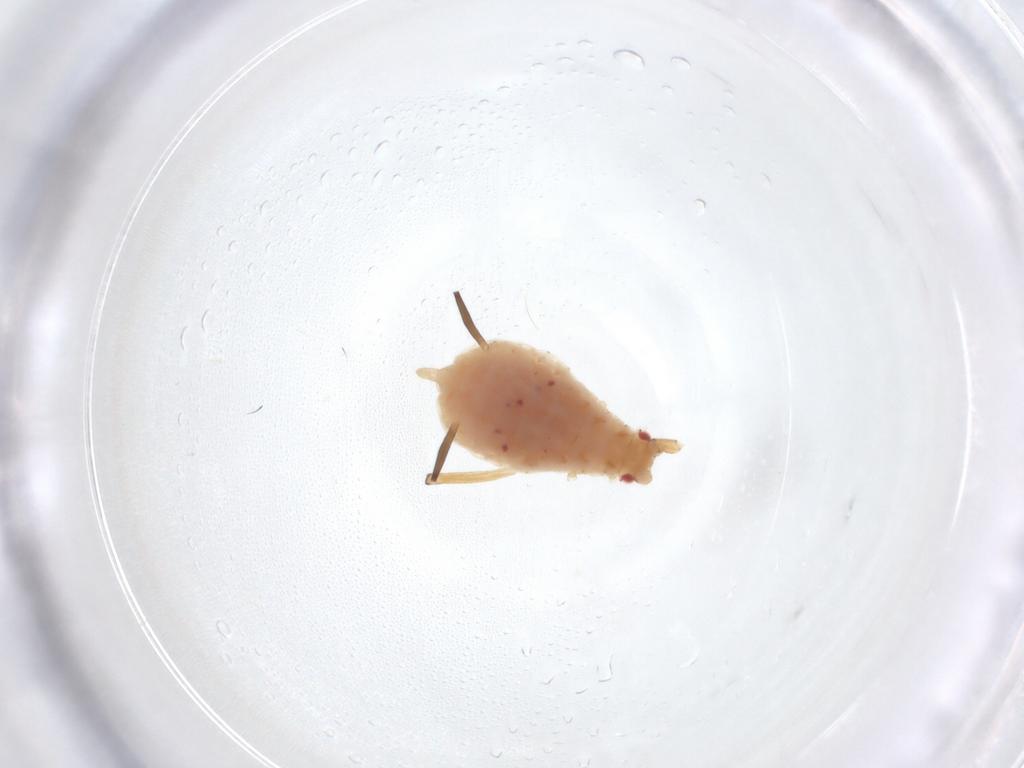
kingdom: Animalia
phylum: Arthropoda
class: Insecta
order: Hemiptera
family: Aphididae
